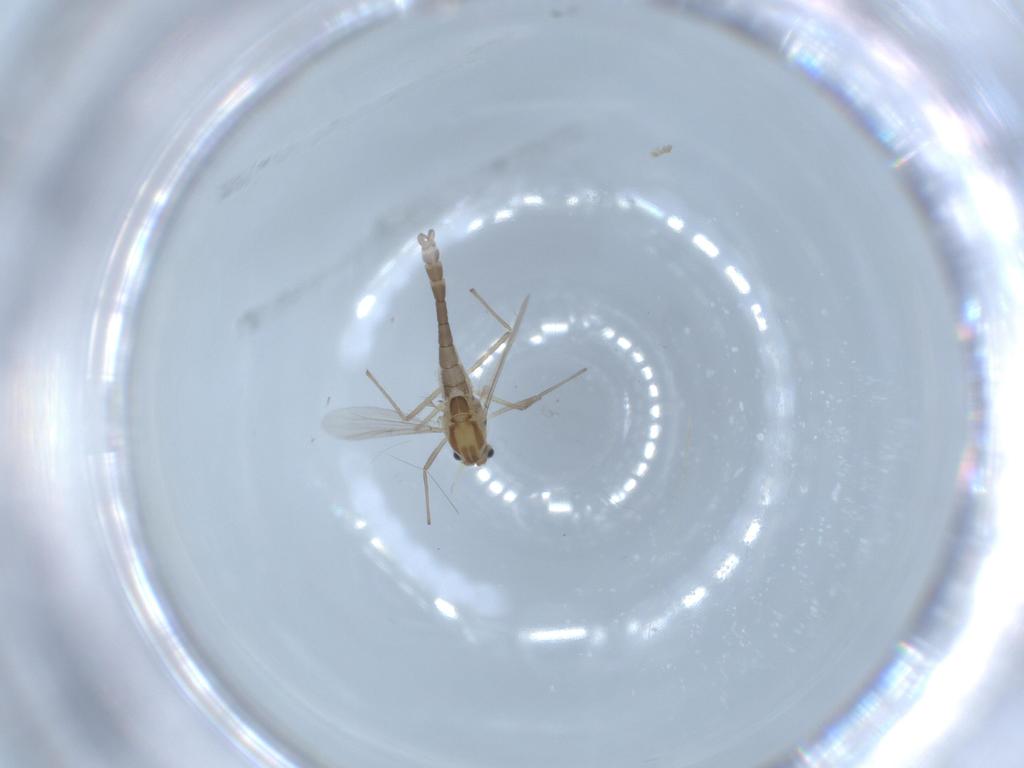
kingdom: Animalia
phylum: Arthropoda
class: Insecta
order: Diptera
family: Chironomidae
